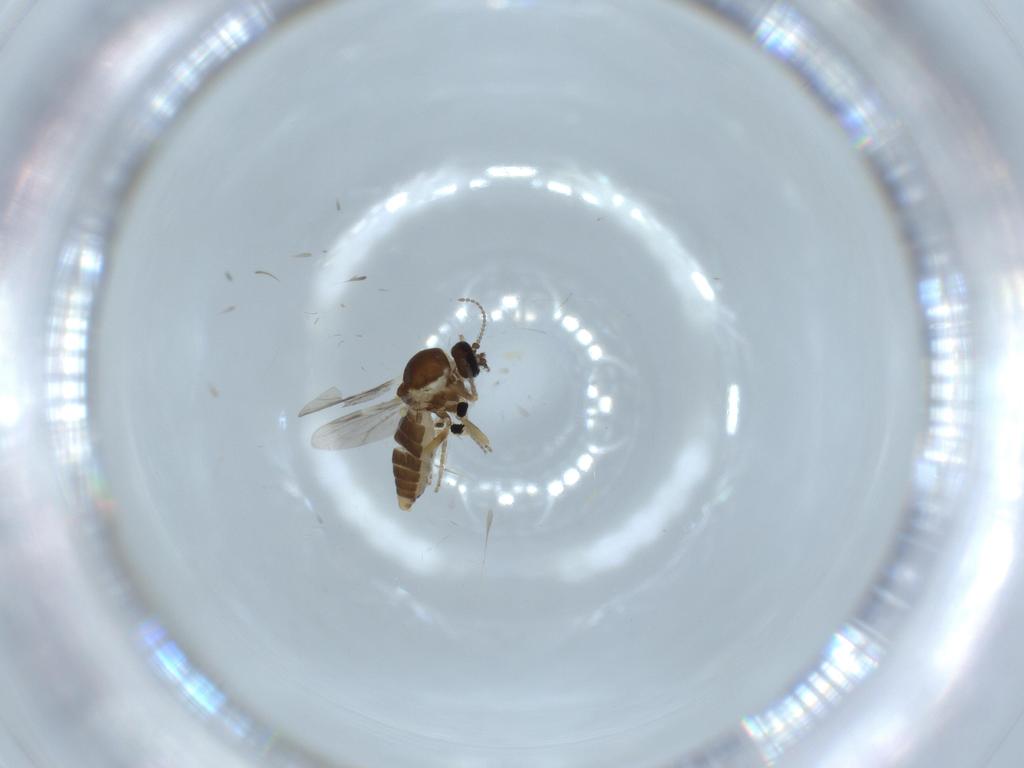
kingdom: Animalia
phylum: Arthropoda
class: Insecta
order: Diptera
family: Ceratopogonidae
